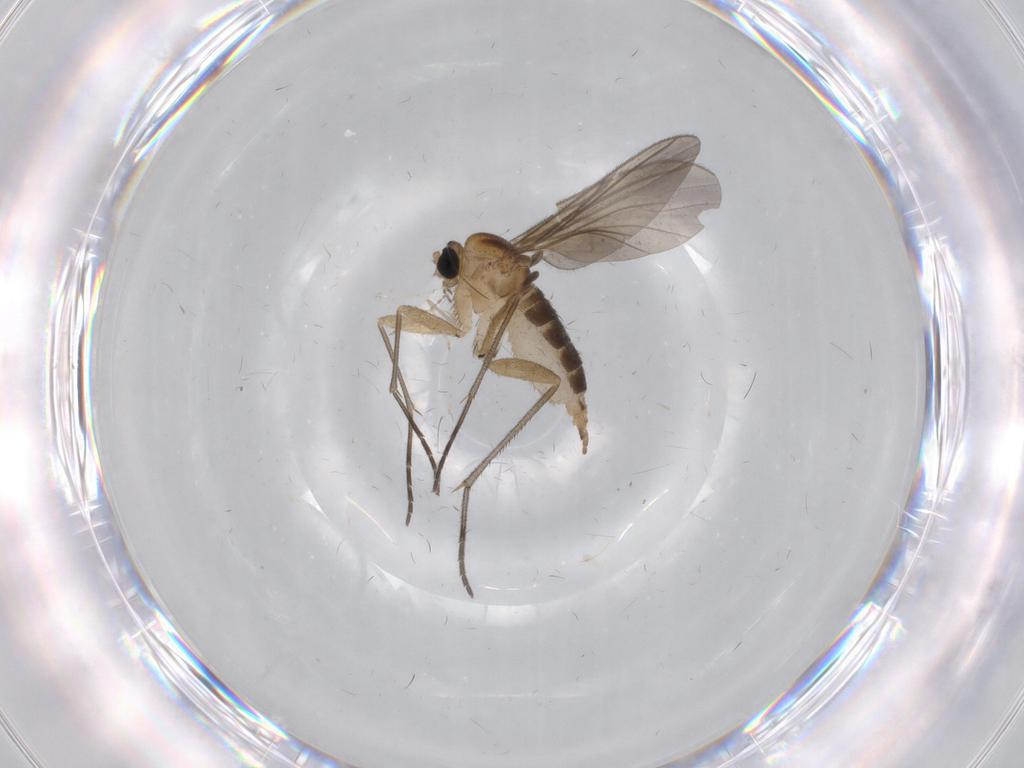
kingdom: Animalia
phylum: Arthropoda
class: Insecta
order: Diptera
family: Sciaridae
